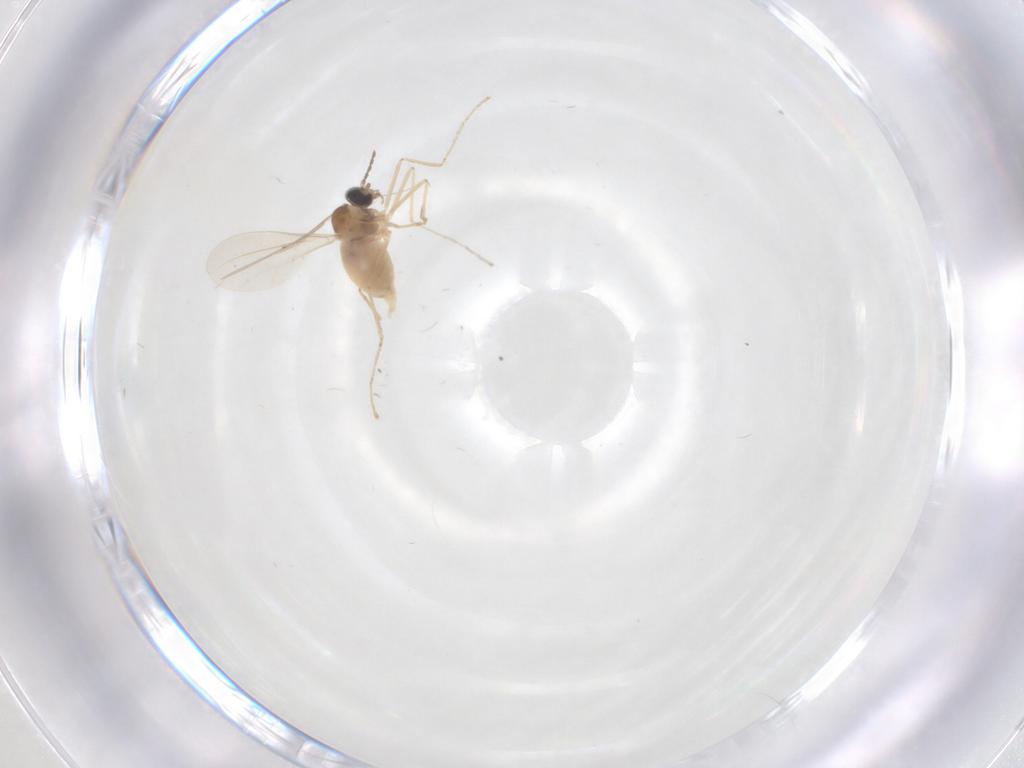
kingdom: Animalia
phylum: Arthropoda
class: Insecta
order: Diptera
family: Cecidomyiidae
